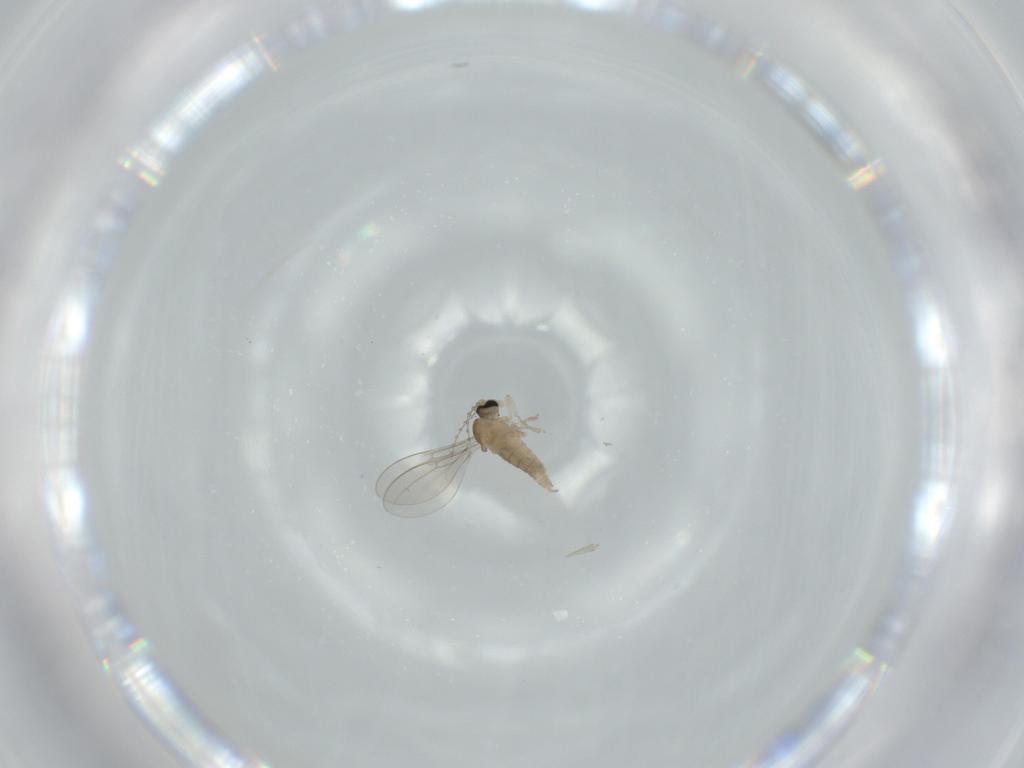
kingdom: Animalia
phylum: Arthropoda
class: Insecta
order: Diptera
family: Cecidomyiidae
